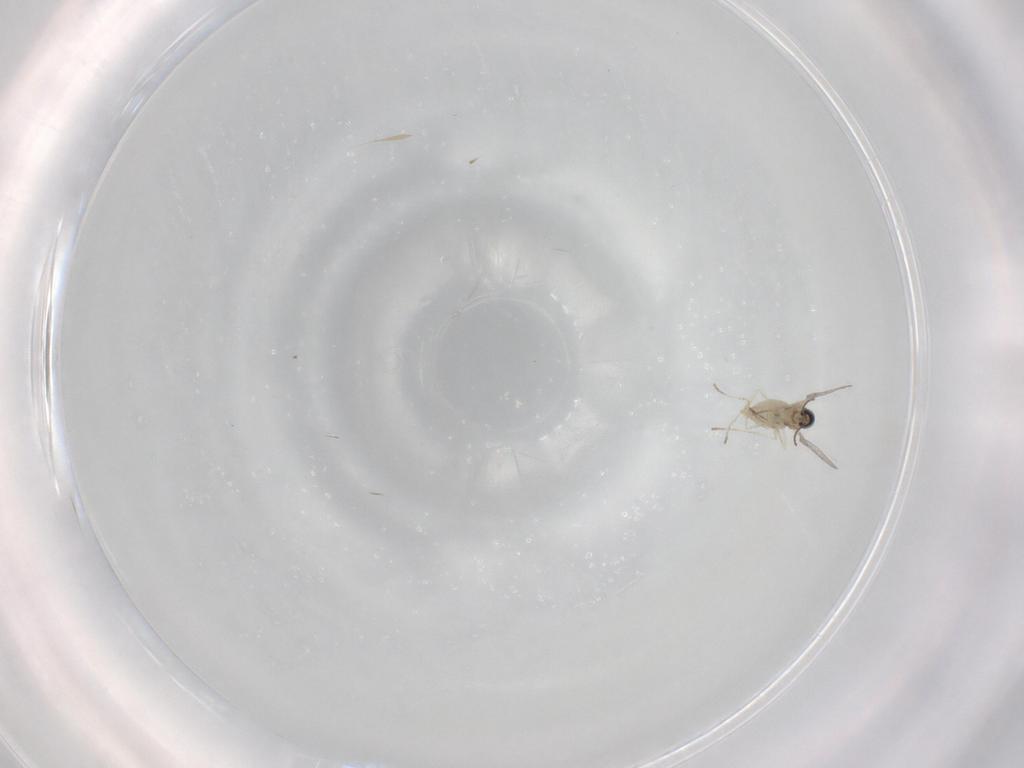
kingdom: Animalia
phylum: Arthropoda
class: Insecta
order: Diptera
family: Cecidomyiidae
